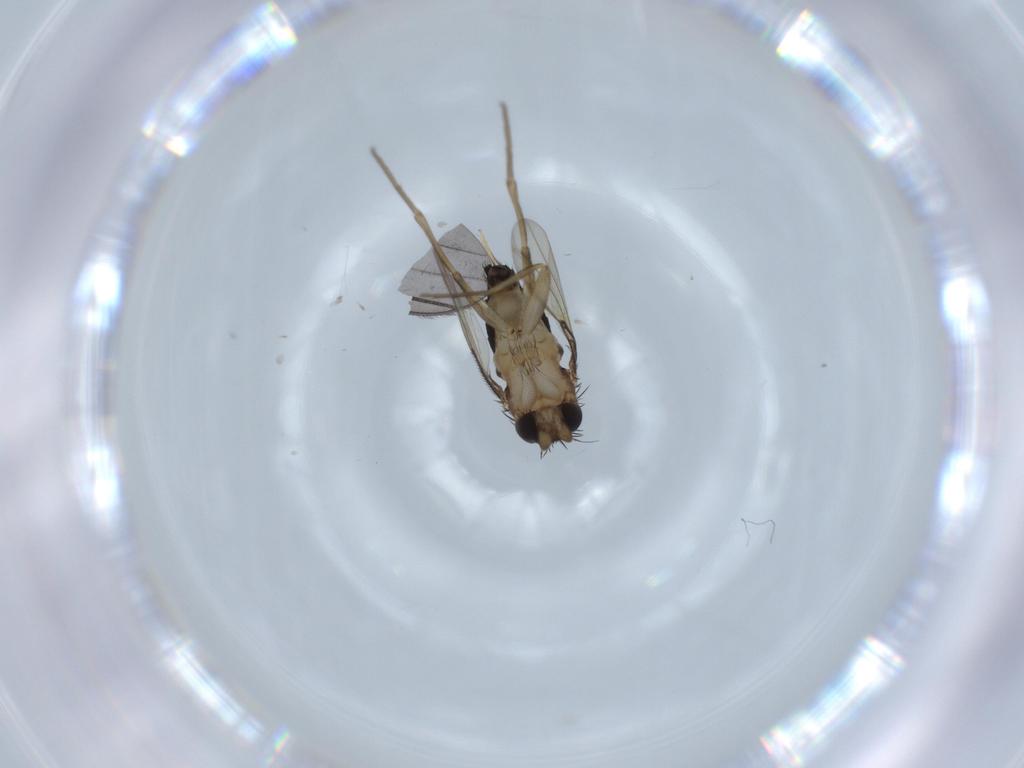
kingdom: Animalia
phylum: Arthropoda
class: Insecta
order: Diptera
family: Phoridae
